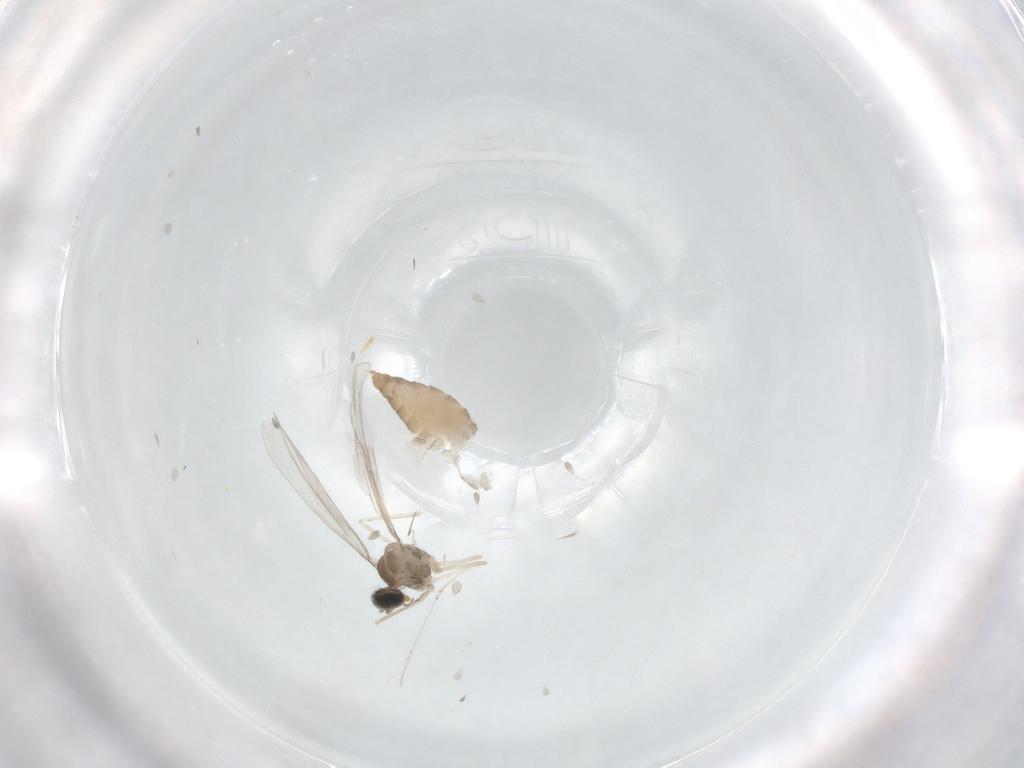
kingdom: Animalia
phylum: Arthropoda
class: Insecta
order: Diptera
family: Cecidomyiidae
